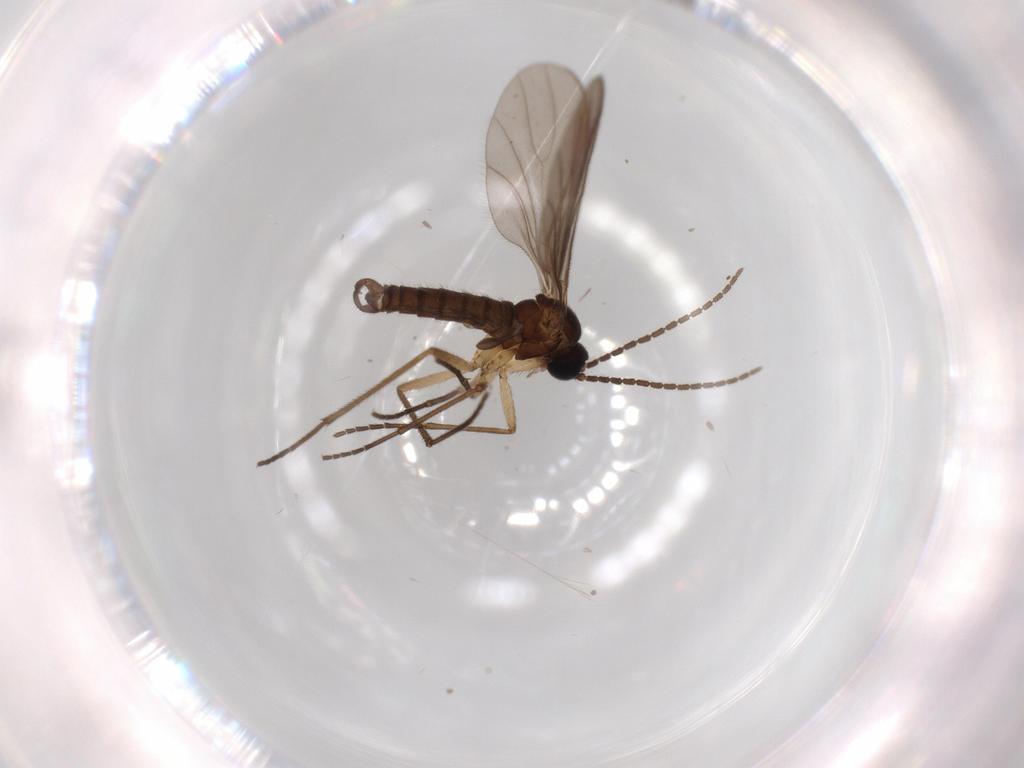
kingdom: Animalia
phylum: Arthropoda
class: Insecta
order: Diptera
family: Sciaridae
